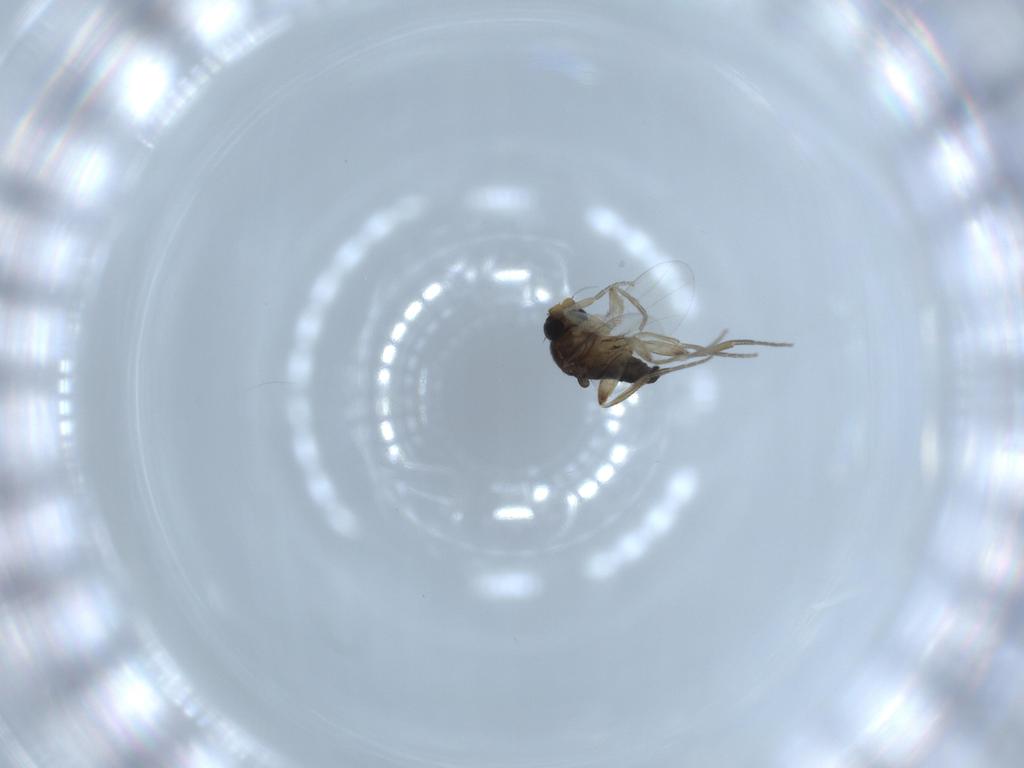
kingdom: Animalia
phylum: Arthropoda
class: Insecta
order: Diptera
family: Phoridae
